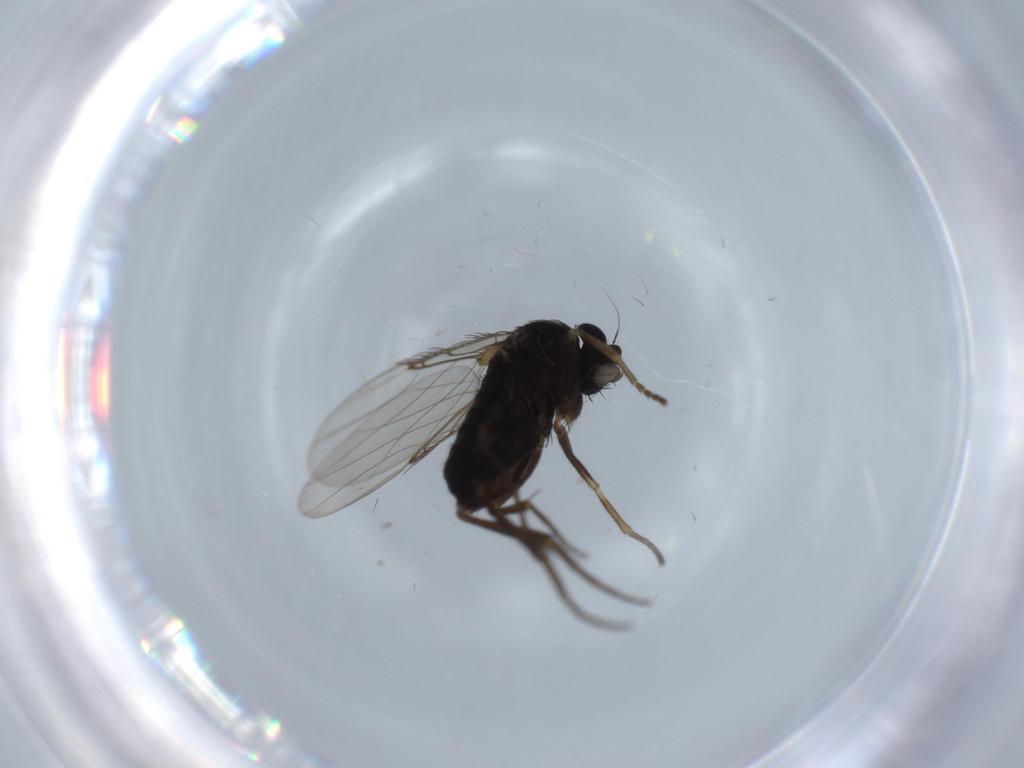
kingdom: Animalia
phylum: Arthropoda
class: Insecta
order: Diptera
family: Phoridae
